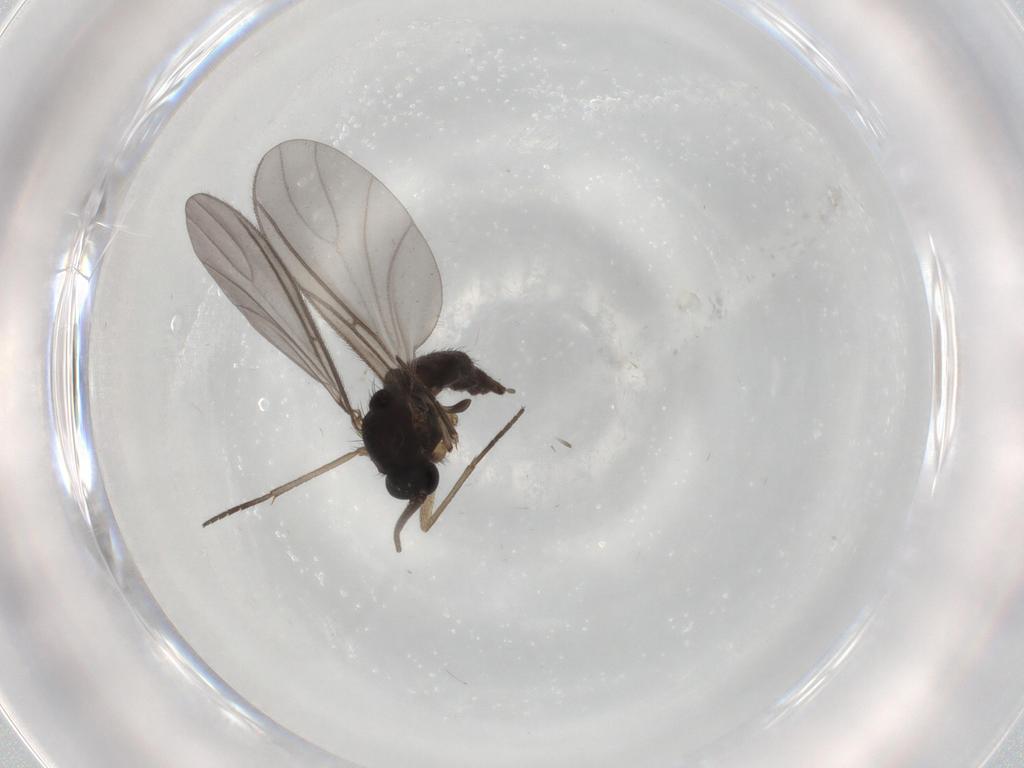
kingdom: Animalia
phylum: Arthropoda
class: Insecta
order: Diptera
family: Sciaridae
